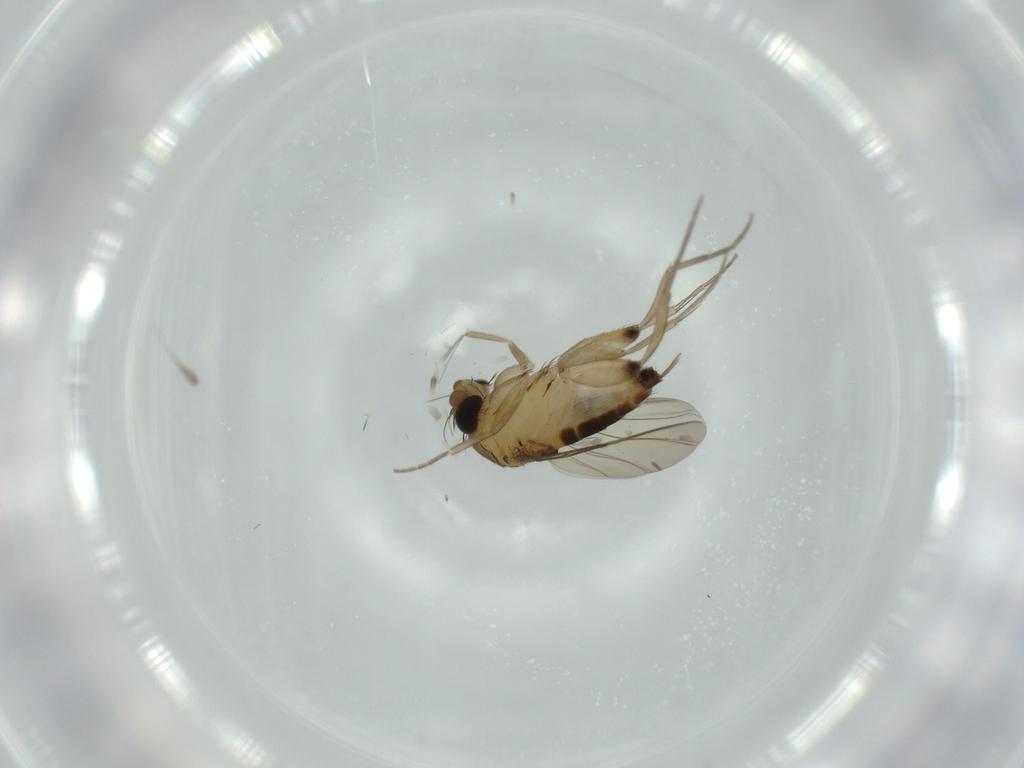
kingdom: Animalia
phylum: Arthropoda
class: Insecta
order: Diptera
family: Phoridae
